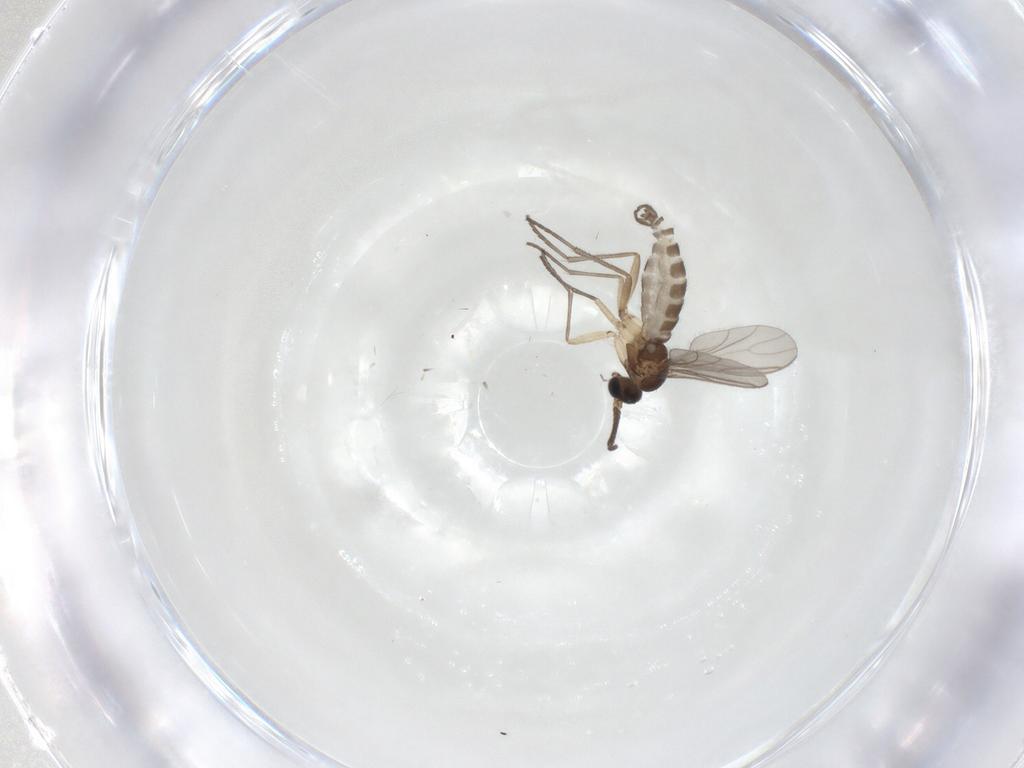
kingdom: Animalia
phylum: Arthropoda
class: Insecta
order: Diptera
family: Sciaridae
